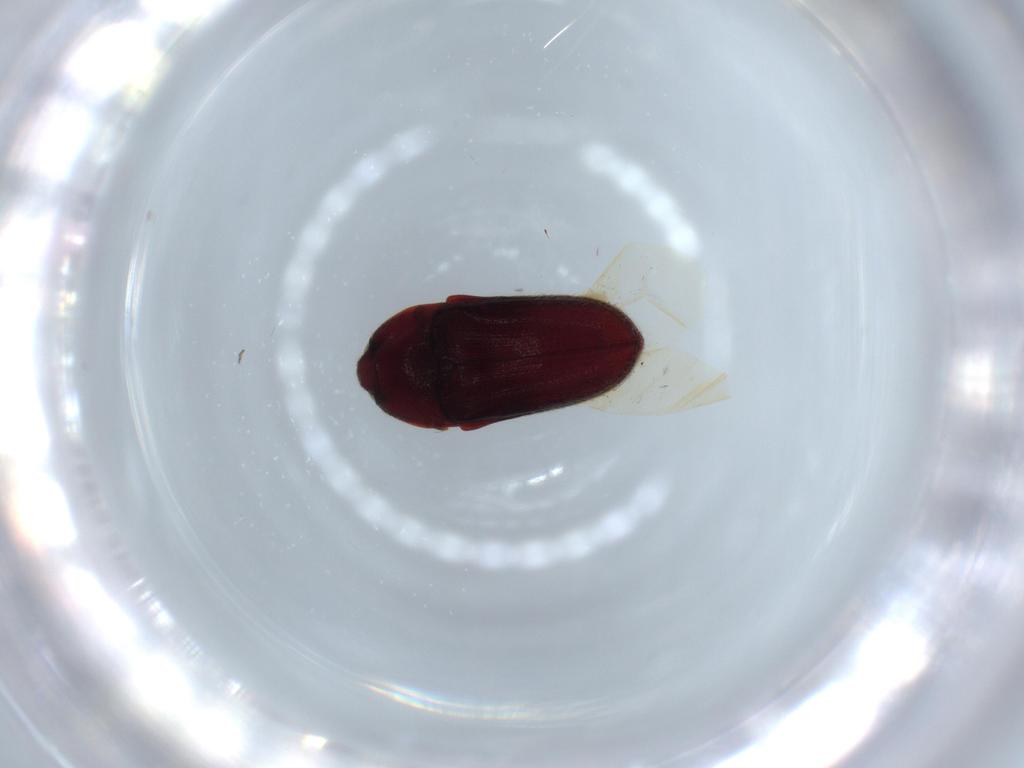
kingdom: Animalia
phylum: Arthropoda
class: Insecta
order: Coleoptera
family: Throscidae
